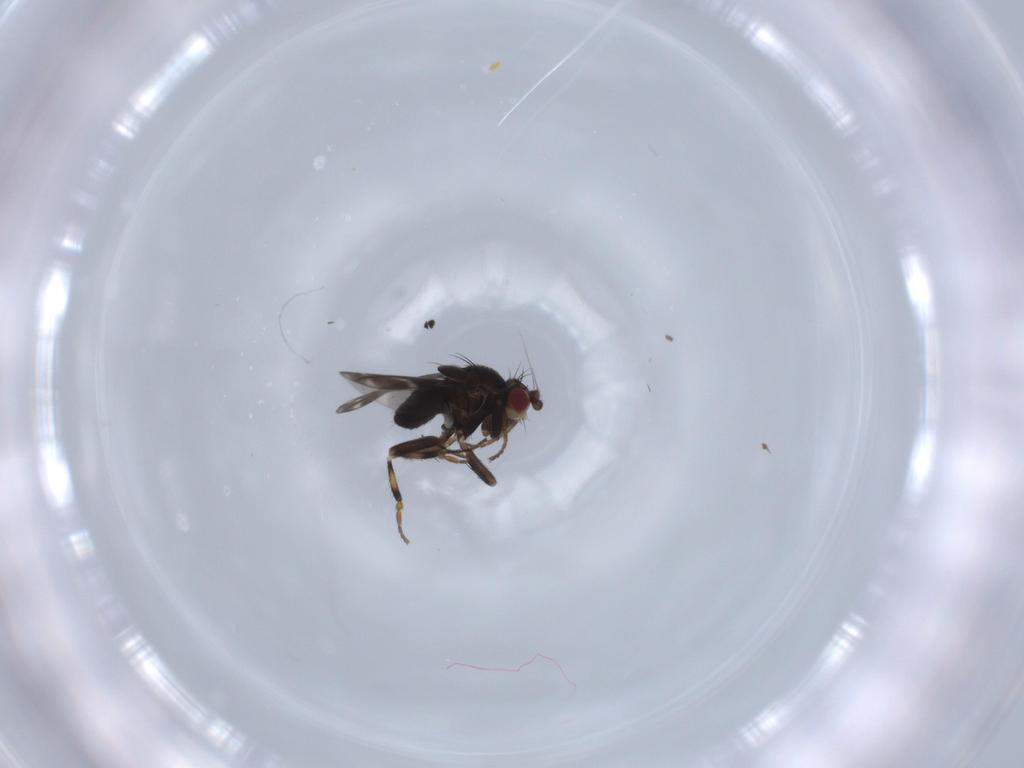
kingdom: Animalia
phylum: Arthropoda
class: Insecta
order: Diptera
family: Sphaeroceridae
